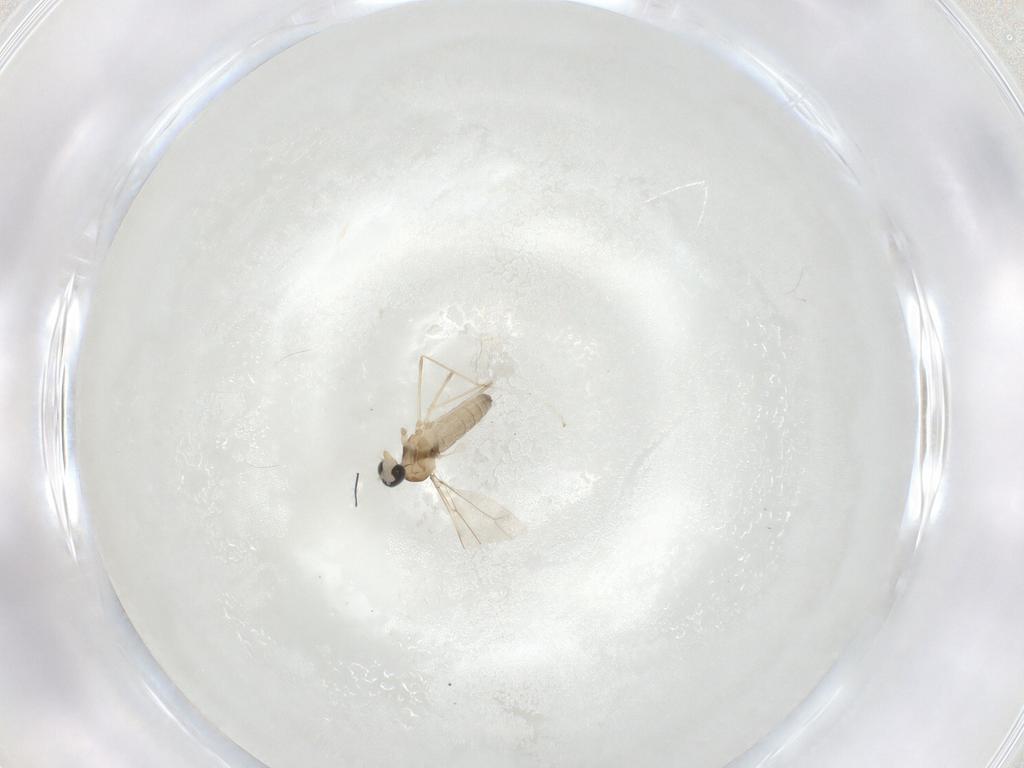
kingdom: Animalia
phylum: Arthropoda
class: Insecta
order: Diptera
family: Cecidomyiidae
